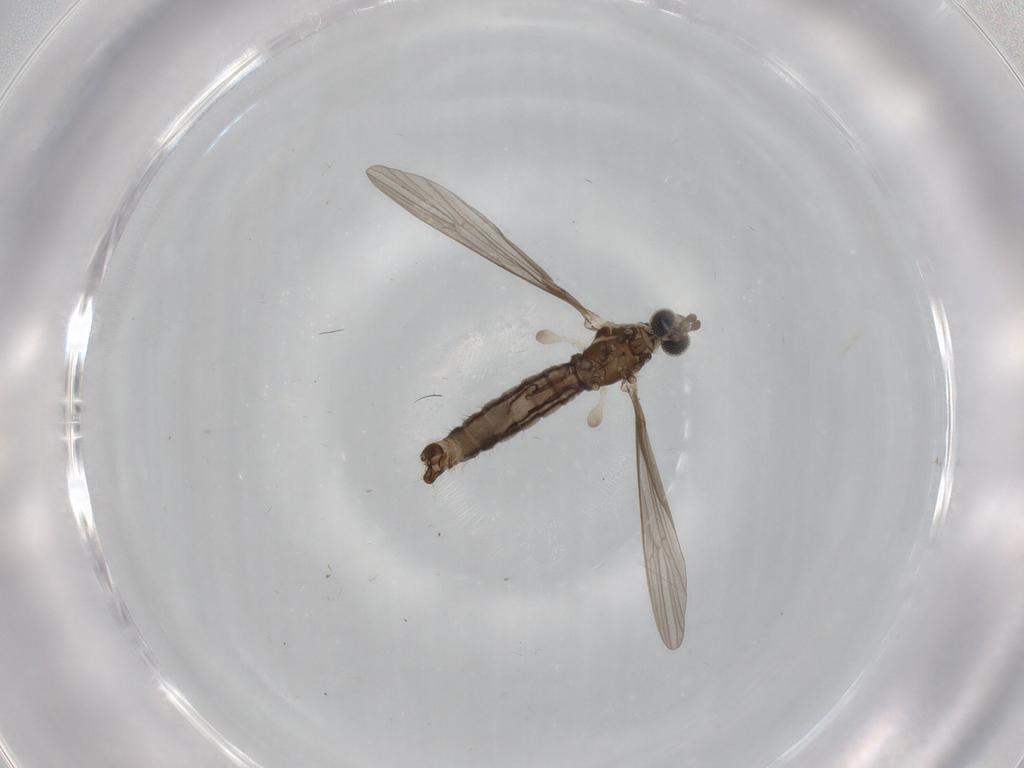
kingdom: Animalia
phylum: Arthropoda
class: Insecta
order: Diptera
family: Limoniidae
